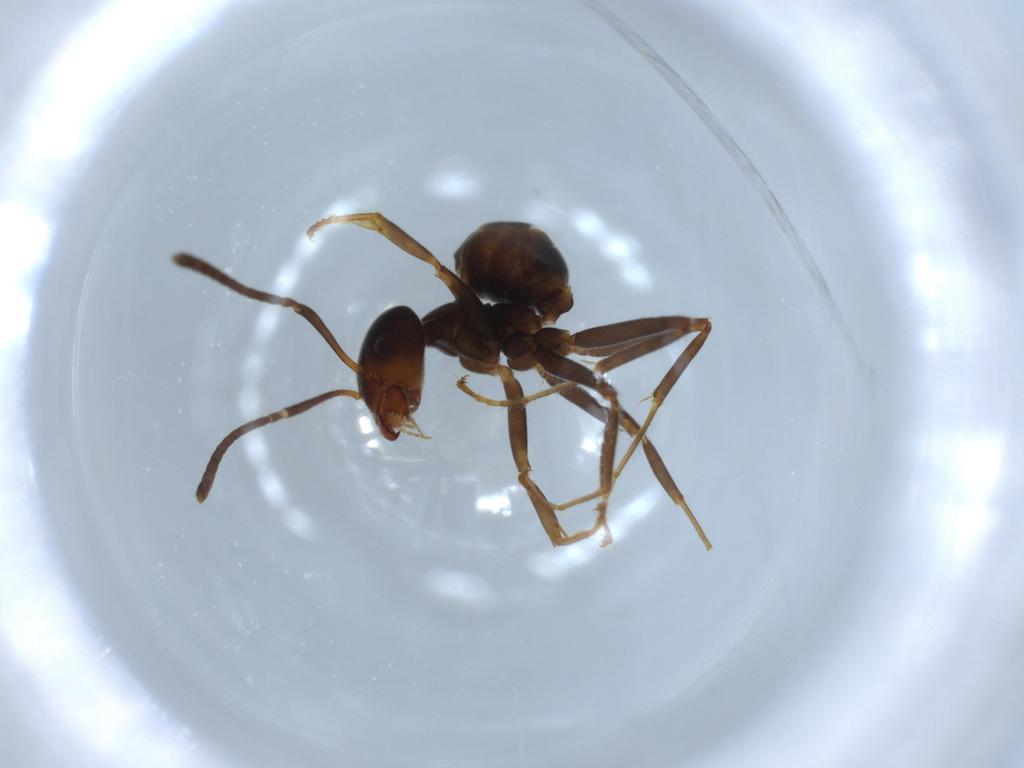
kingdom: Animalia
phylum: Arthropoda
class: Insecta
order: Hymenoptera
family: Formicidae
